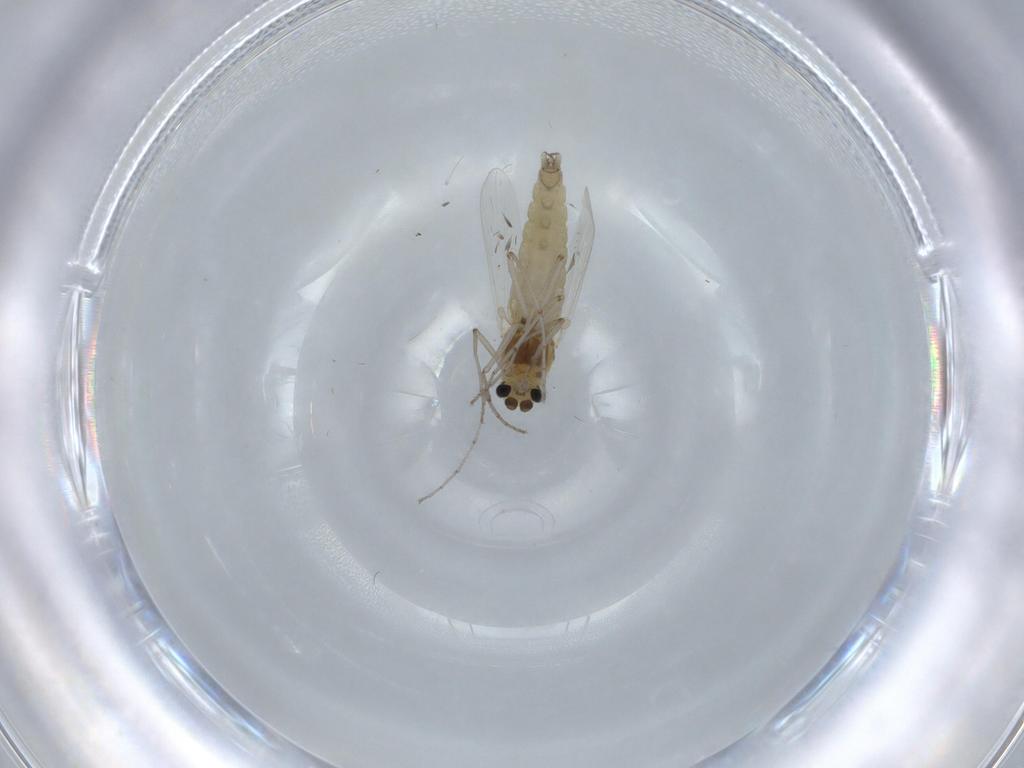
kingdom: Animalia
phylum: Arthropoda
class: Insecta
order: Diptera
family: Chironomidae
